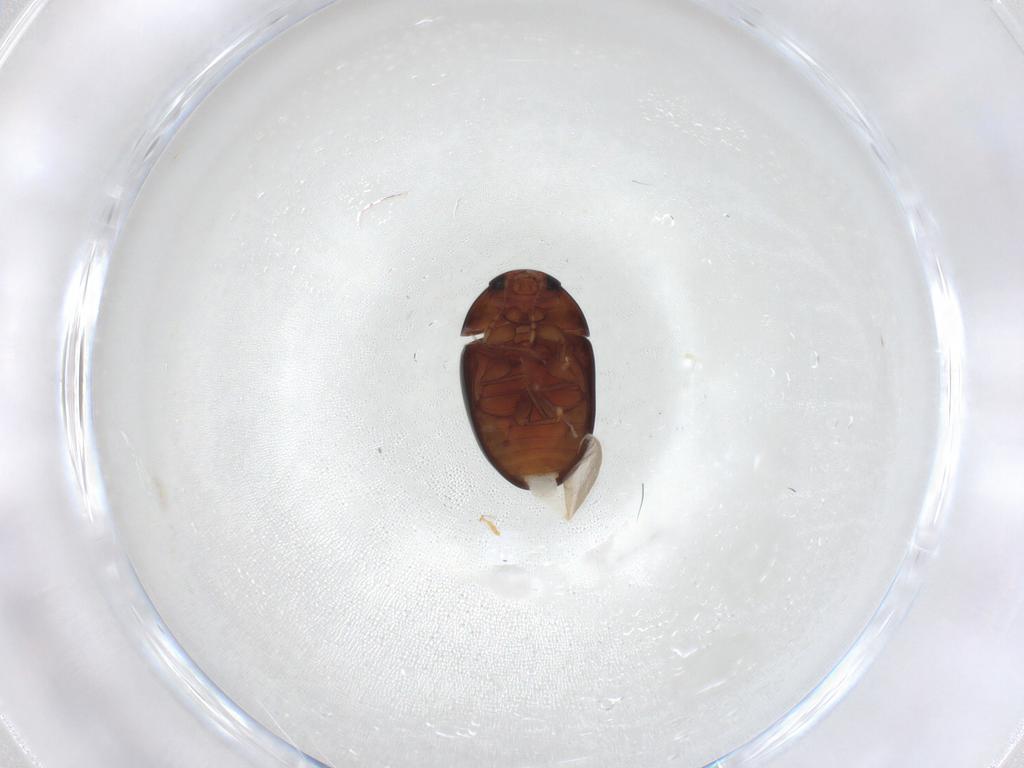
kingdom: Animalia
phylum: Arthropoda
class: Insecta
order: Coleoptera
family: Phalacridae
